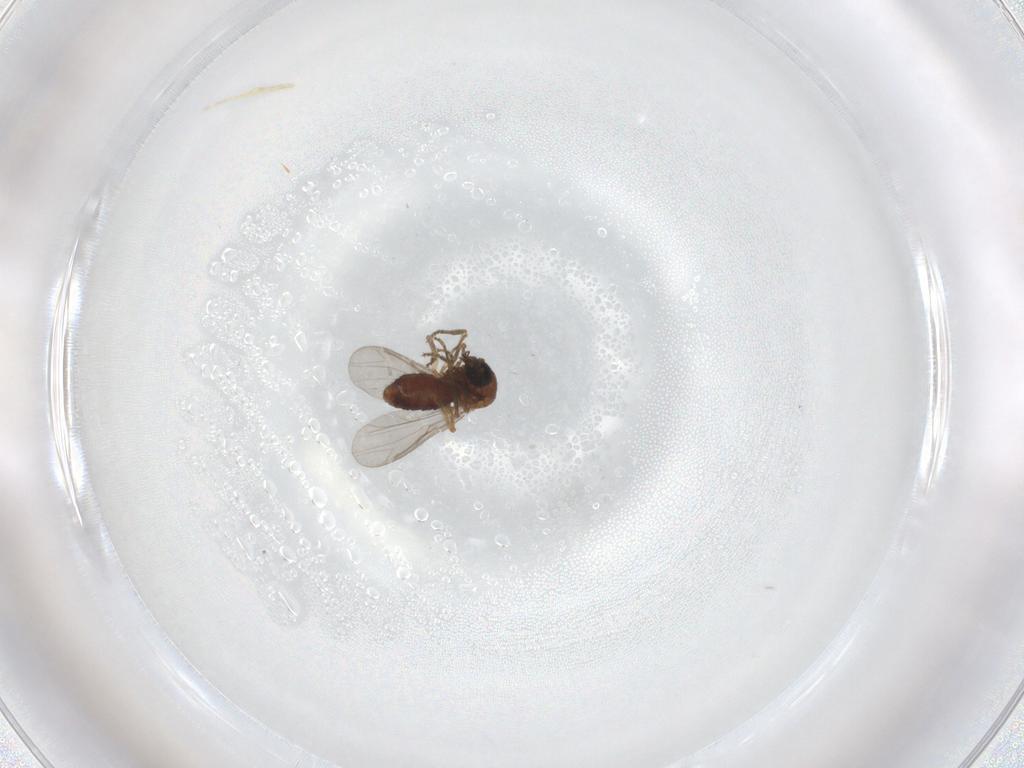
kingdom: Animalia
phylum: Arthropoda
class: Insecta
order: Diptera
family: Ceratopogonidae
